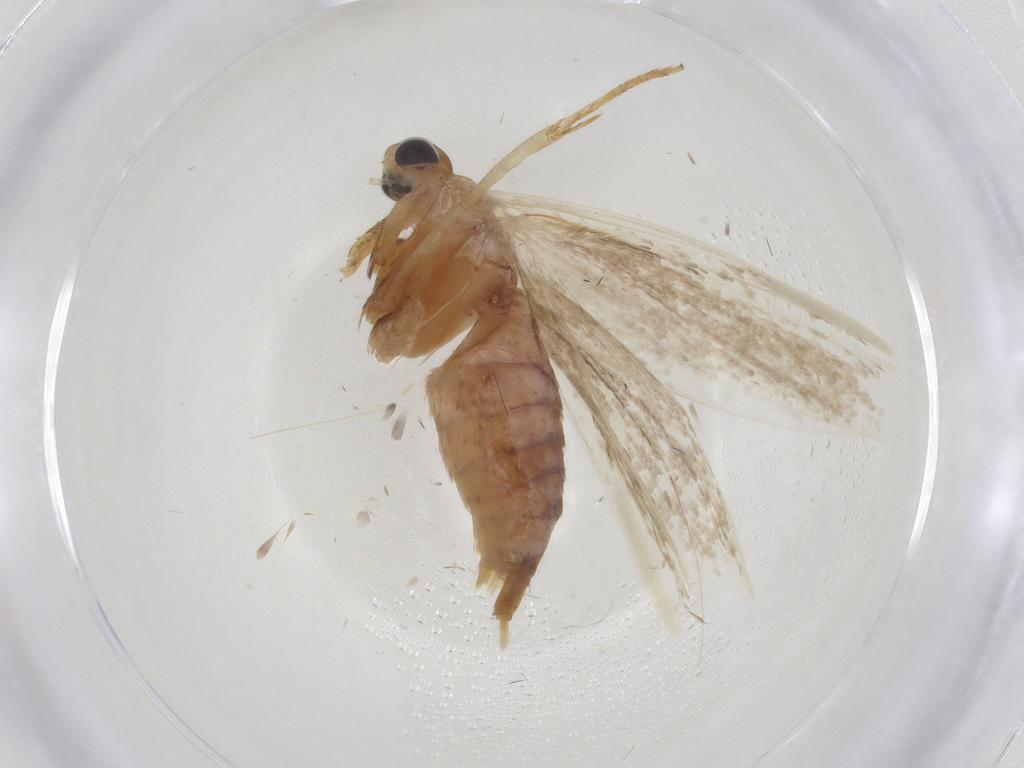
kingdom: Animalia
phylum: Arthropoda
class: Insecta
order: Lepidoptera
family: Blastobasidae
